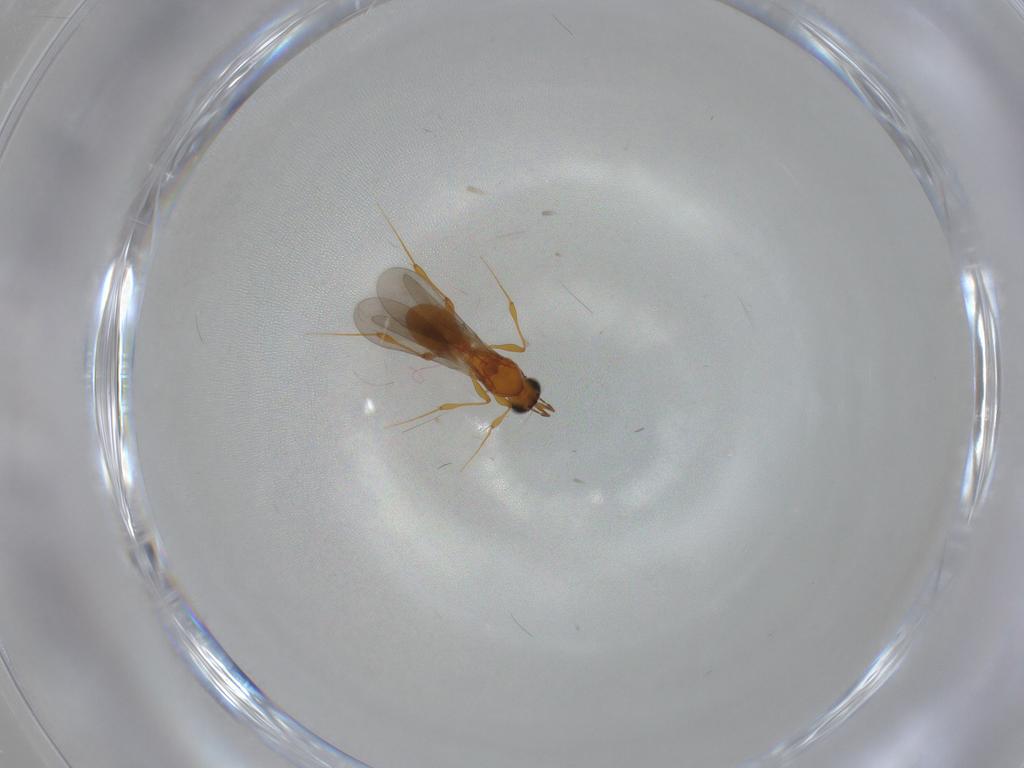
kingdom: Animalia
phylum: Arthropoda
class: Insecta
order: Hymenoptera
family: Platygastridae
